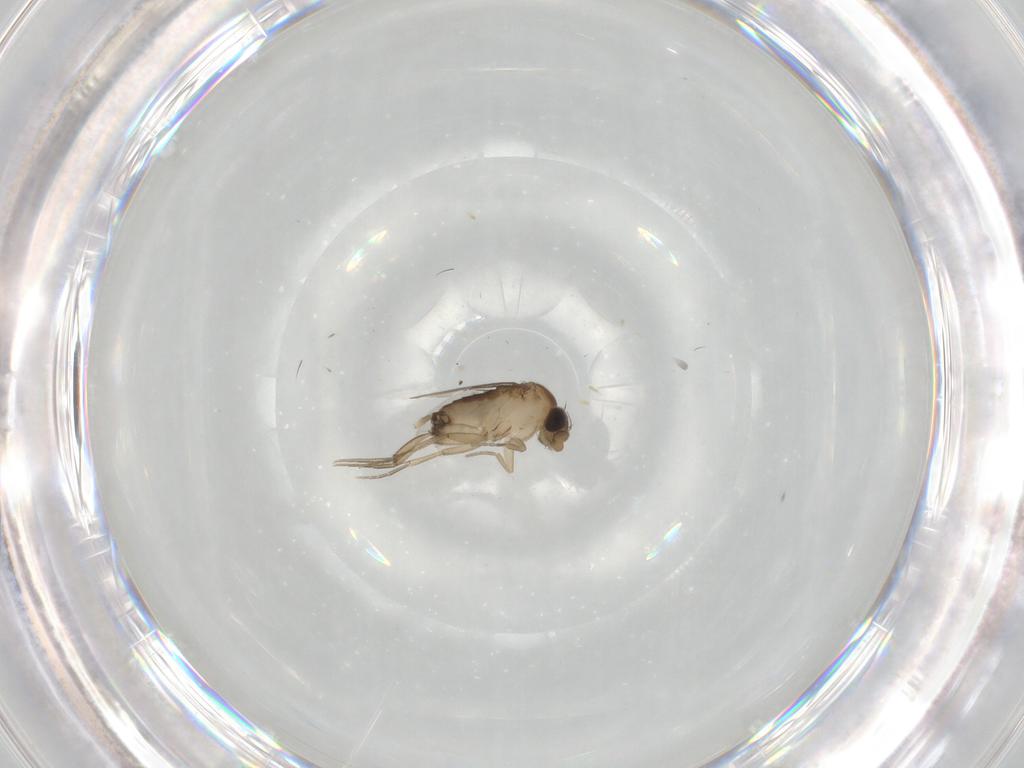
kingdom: Animalia
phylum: Arthropoda
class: Insecta
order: Diptera
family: Phoridae
